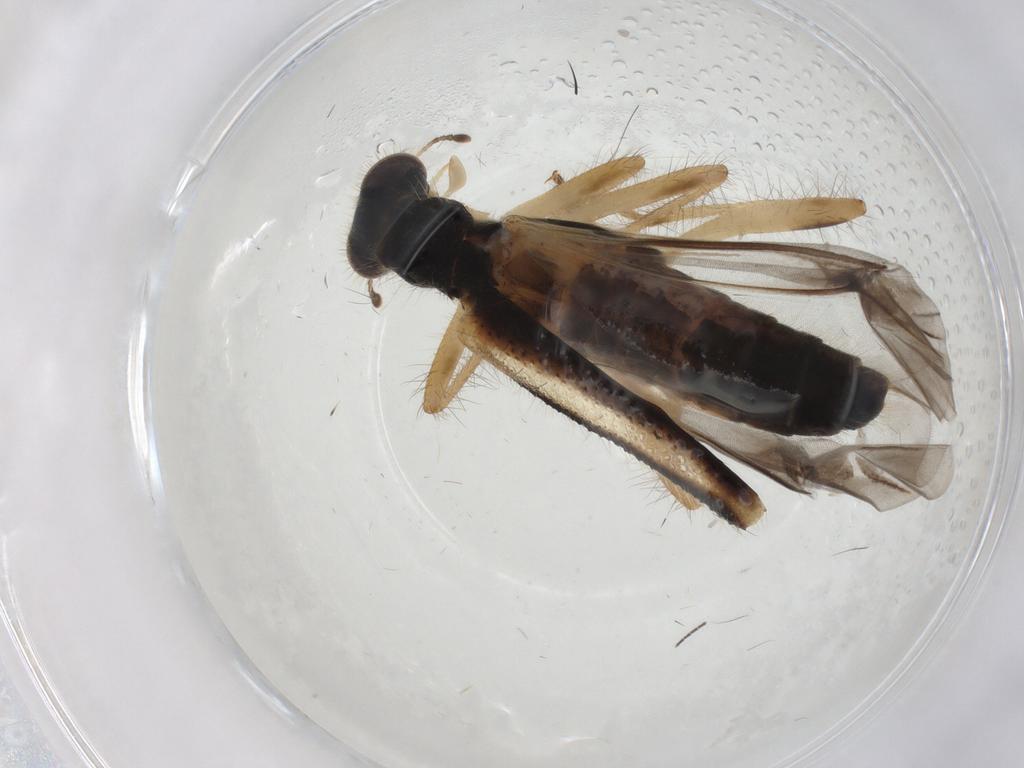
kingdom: Animalia
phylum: Arthropoda
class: Insecta
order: Coleoptera
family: Cleridae
